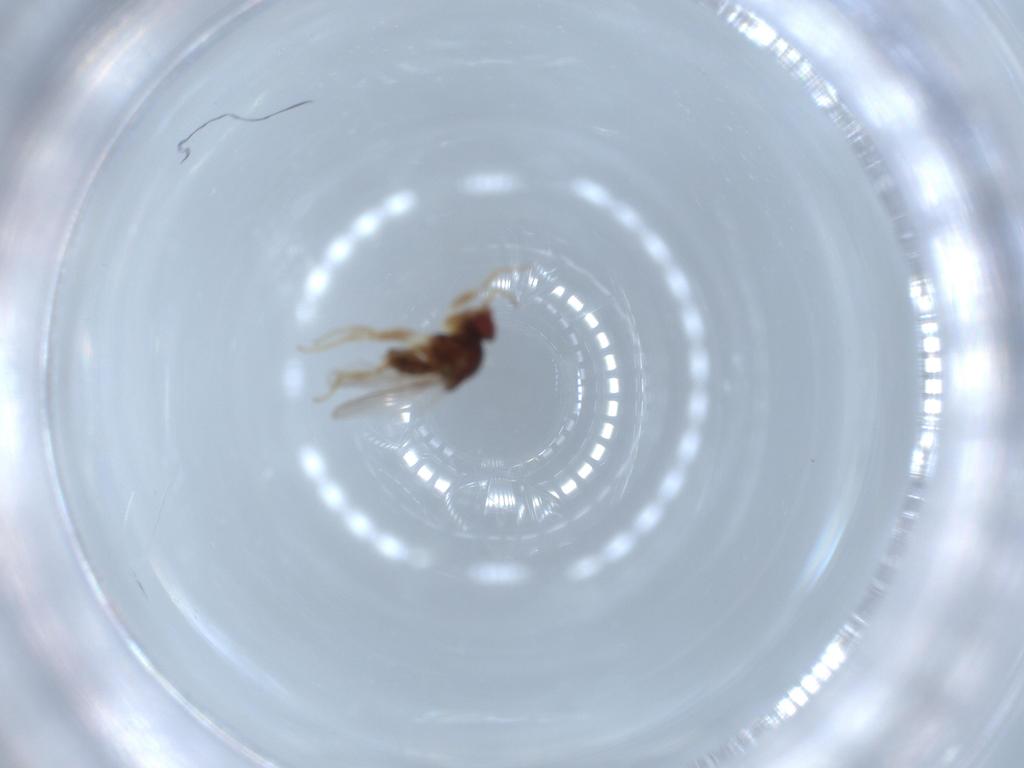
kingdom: Animalia
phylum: Arthropoda
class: Insecta
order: Diptera
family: Chloropidae
